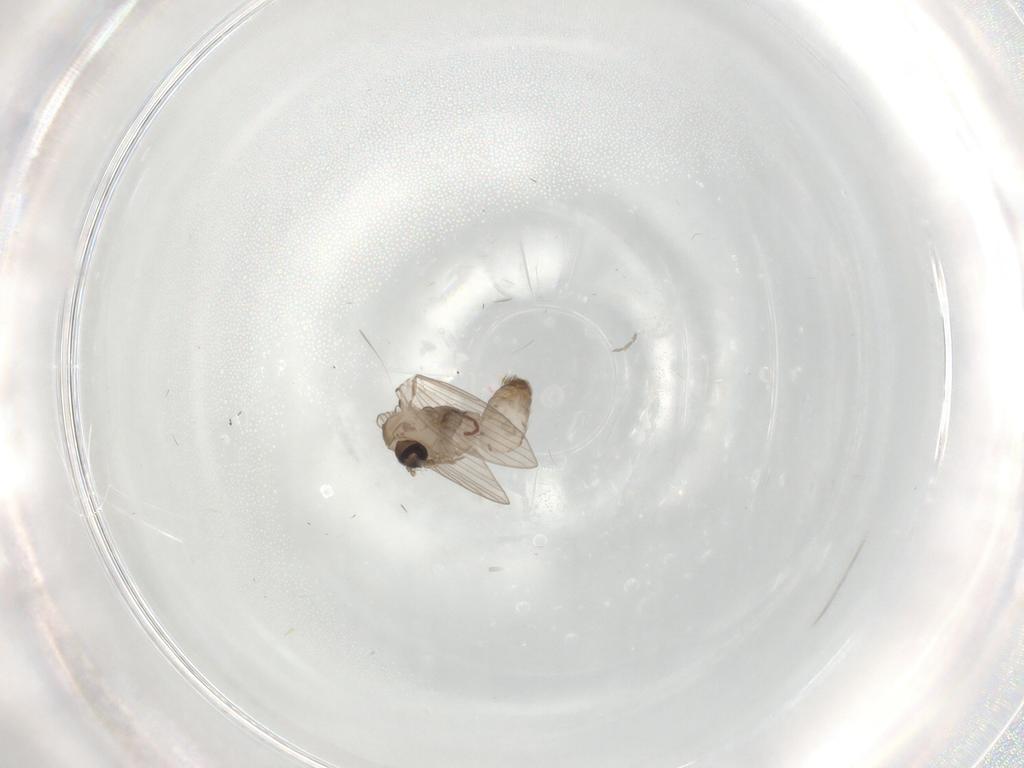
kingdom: Animalia
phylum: Arthropoda
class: Insecta
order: Diptera
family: Psychodidae
